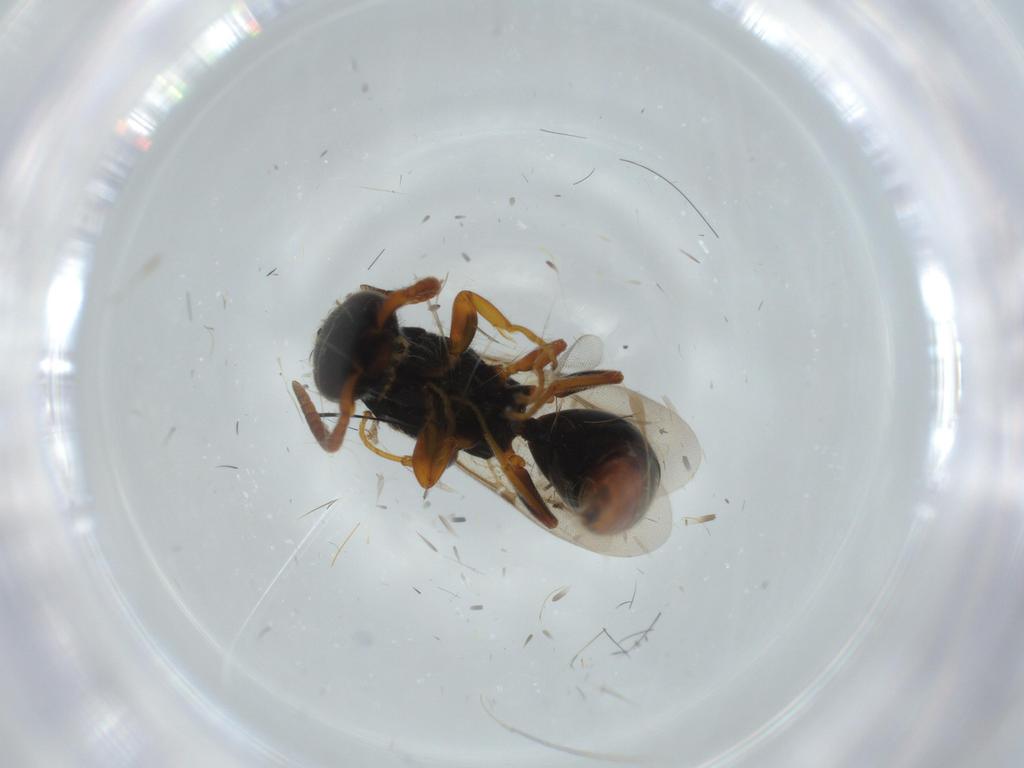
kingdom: Animalia
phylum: Arthropoda
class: Insecta
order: Hymenoptera
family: Bethylidae
